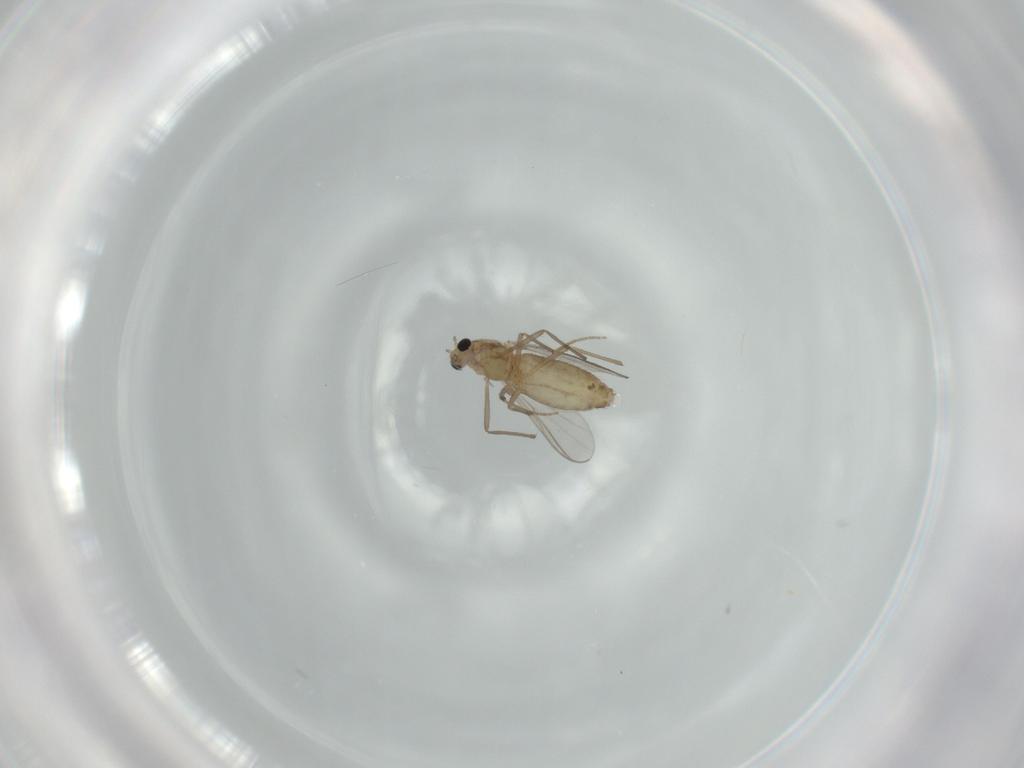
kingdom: Animalia
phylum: Arthropoda
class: Insecta
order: Diptera
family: Chironomidae
